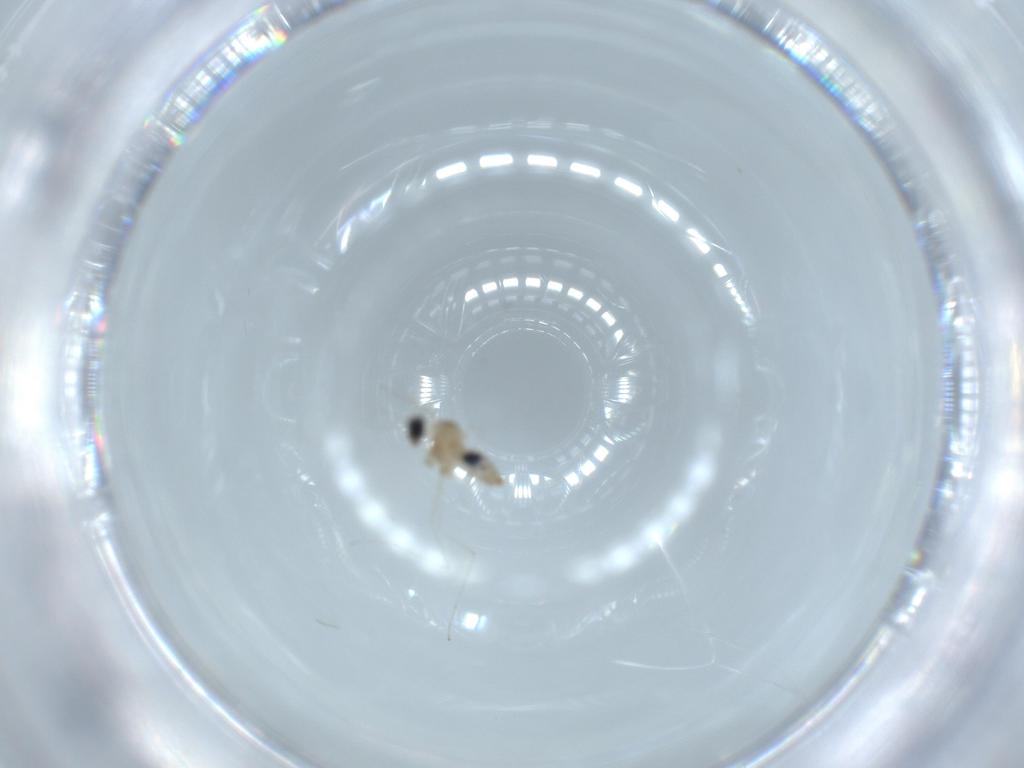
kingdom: Animalia
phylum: Arthropoda
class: Insecta
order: Diptera
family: Cecidomyiidae
